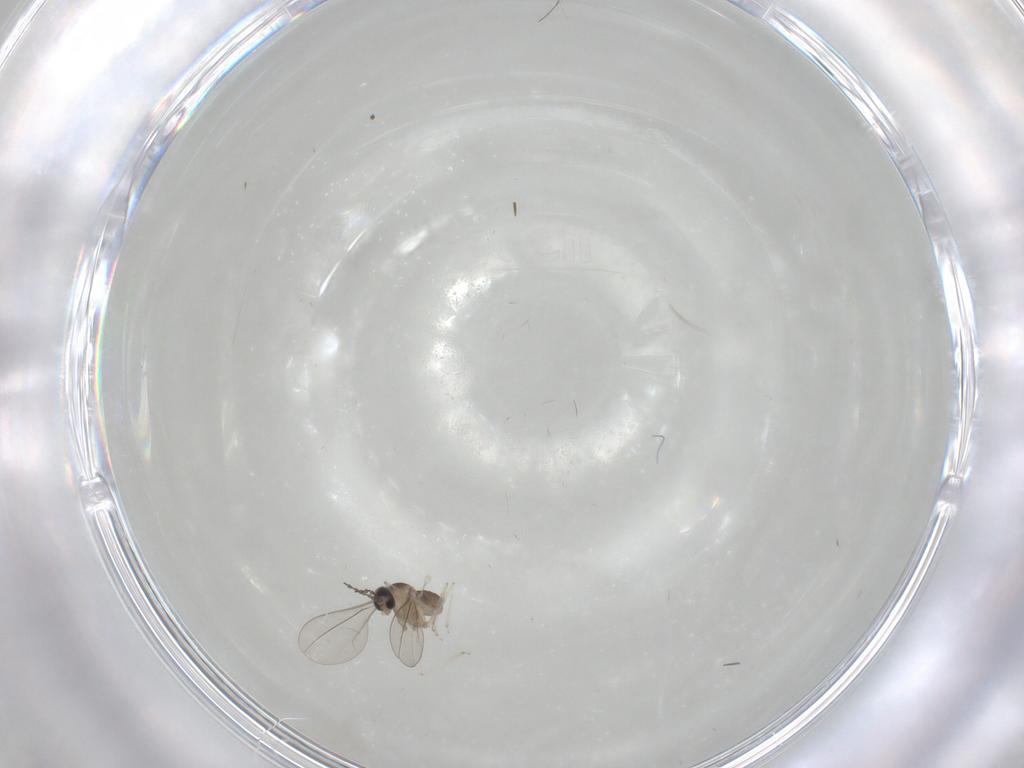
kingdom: Animalia
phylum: Arthropoda
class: Insecta
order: Diptera
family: Cecidomyiidae
